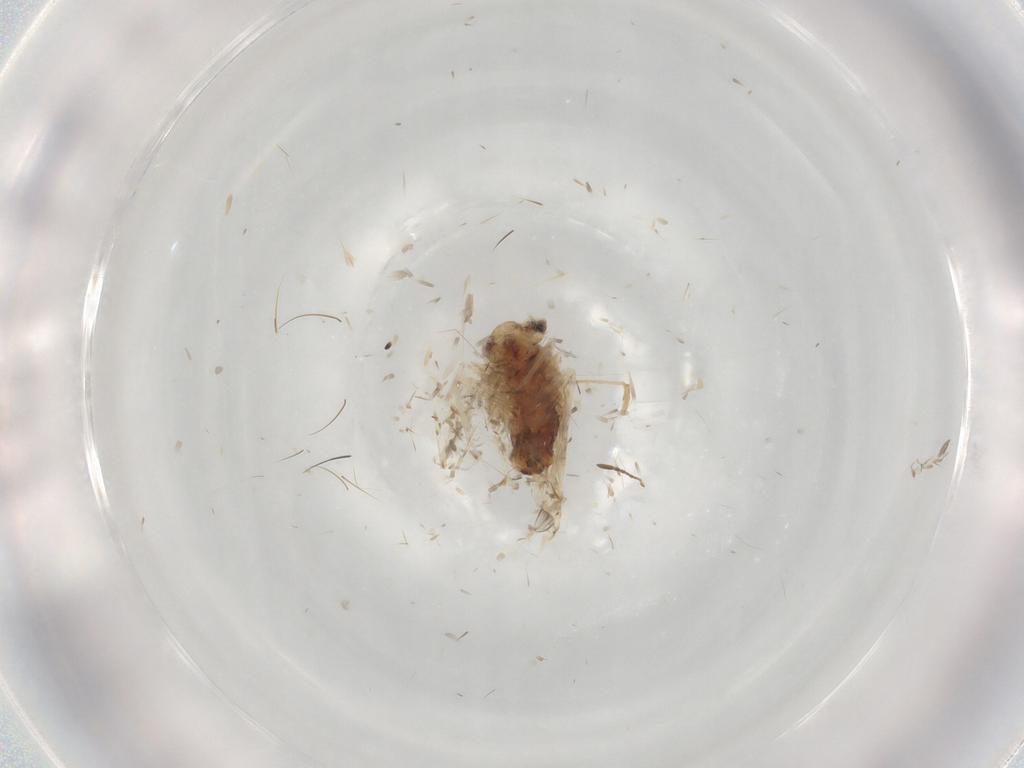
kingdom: Animalia
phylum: Arthropoda
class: Insecta
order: Psocodea
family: Lepidopsocidae
